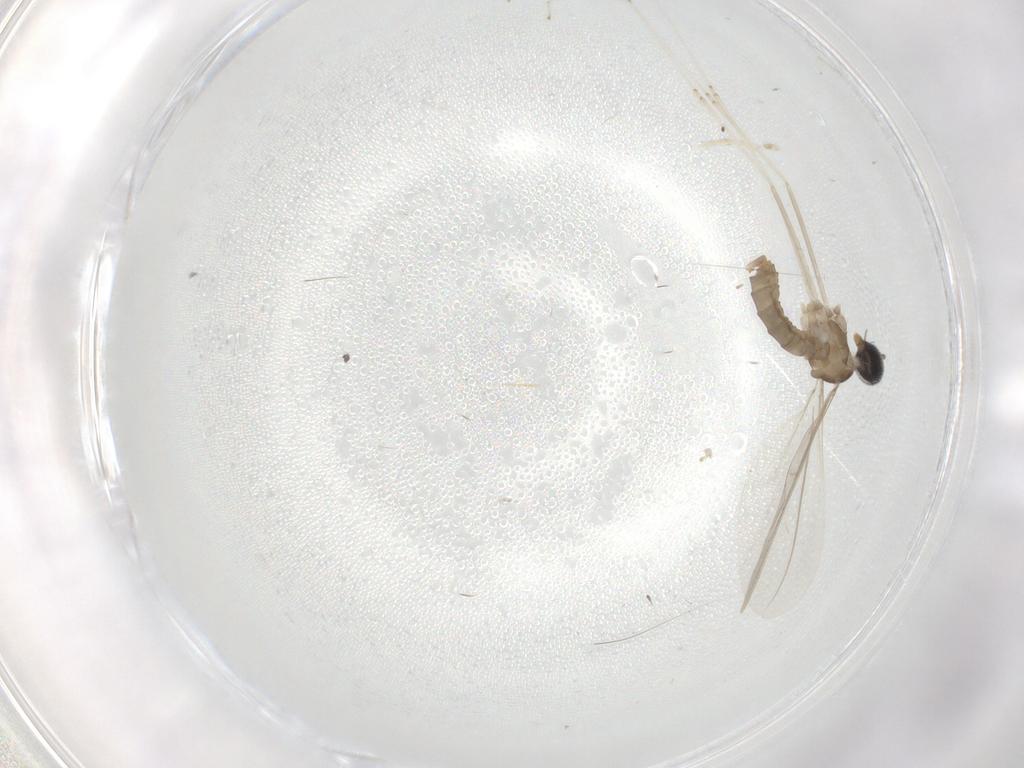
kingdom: Animalia
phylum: Arthropoda
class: Insecta
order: Diptera
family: Cecidomyiidae
